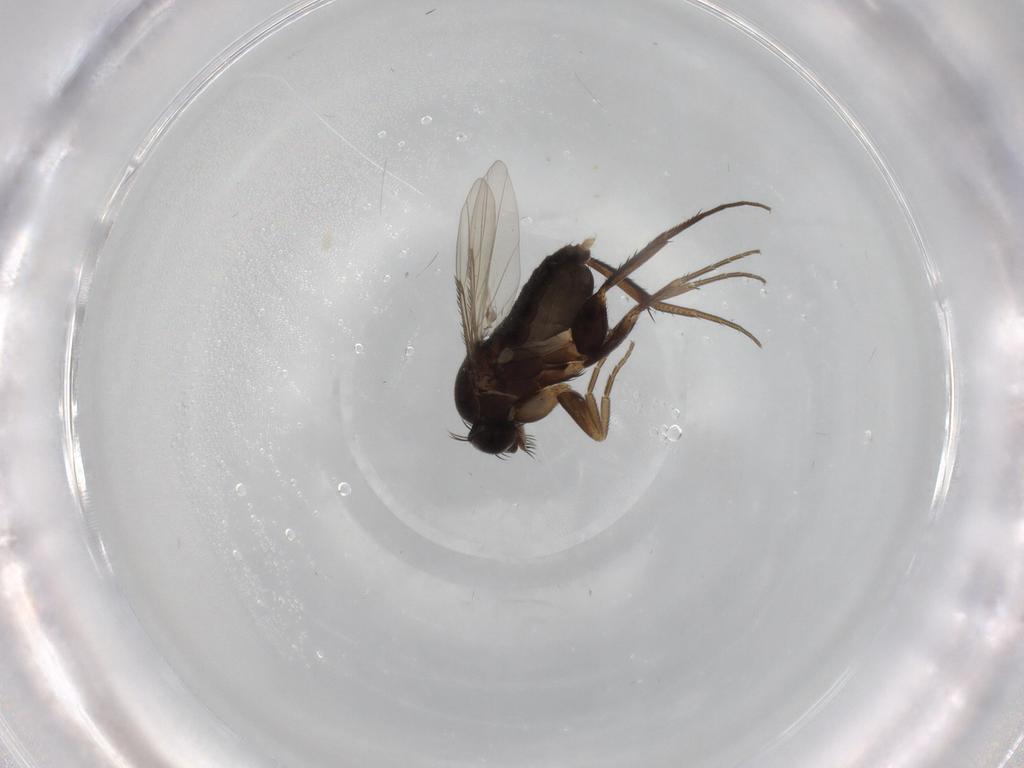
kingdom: Animalia
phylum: Arthropoda
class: Insecta
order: Diptera
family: Phoridae
